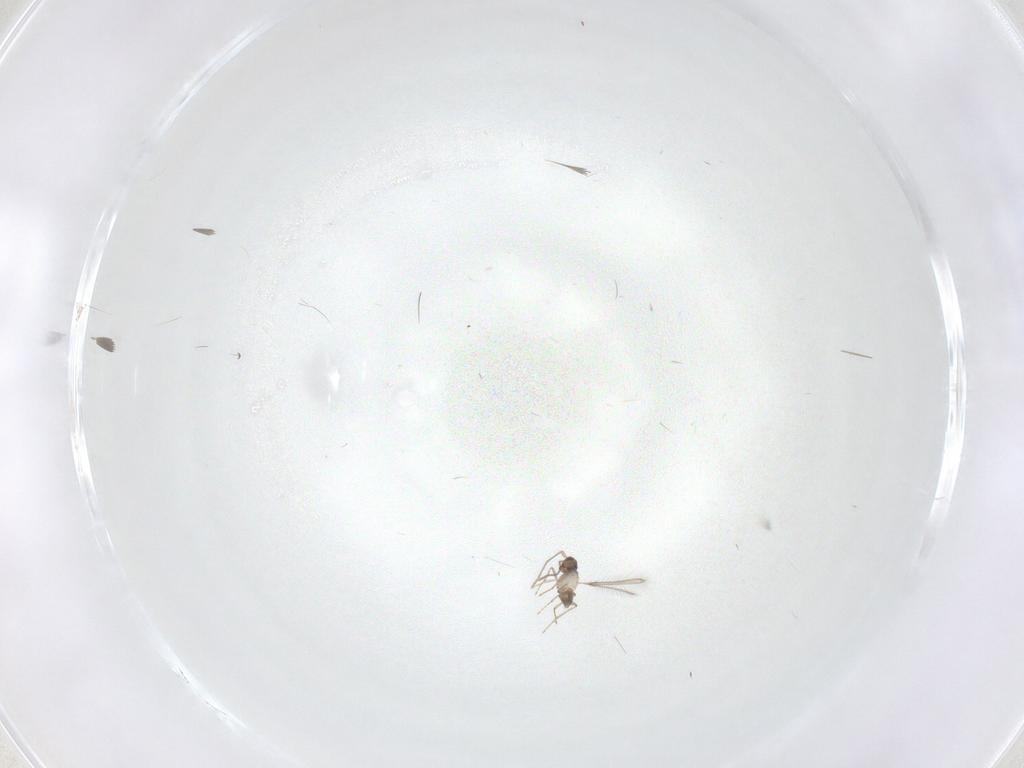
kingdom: Animalia
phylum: Arthropoda
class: Insecta
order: Hymenoptera
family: Mymaridae
